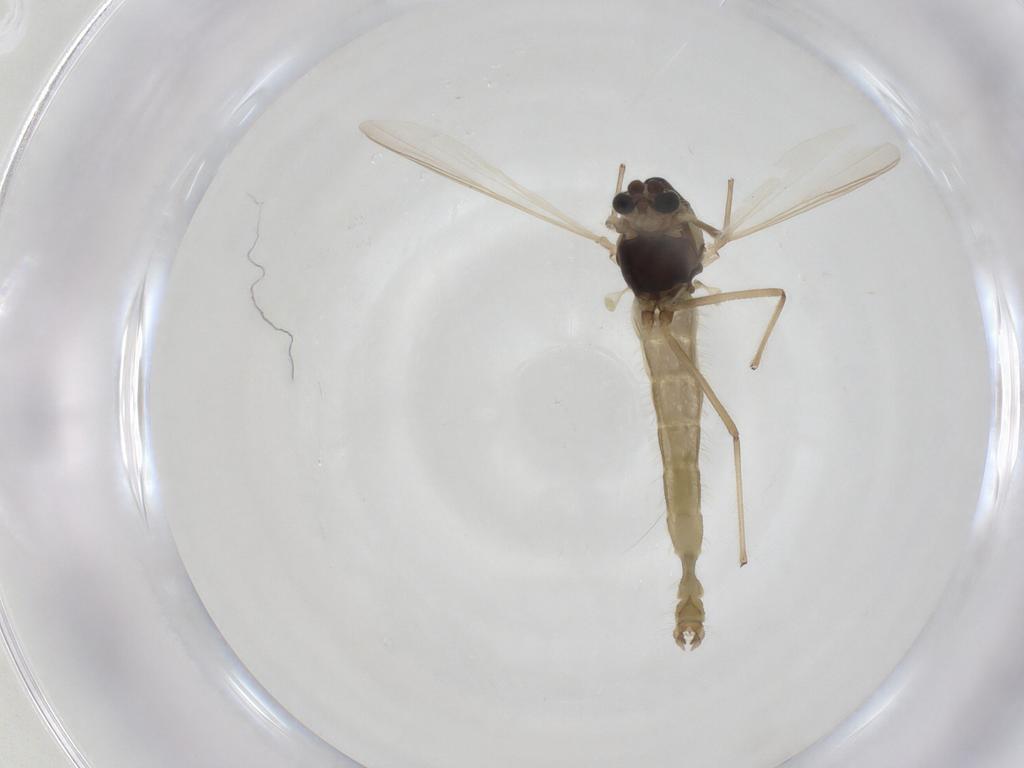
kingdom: Animalia
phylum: Arthropoda
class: Insecta
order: Diptera
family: Chironomidae
